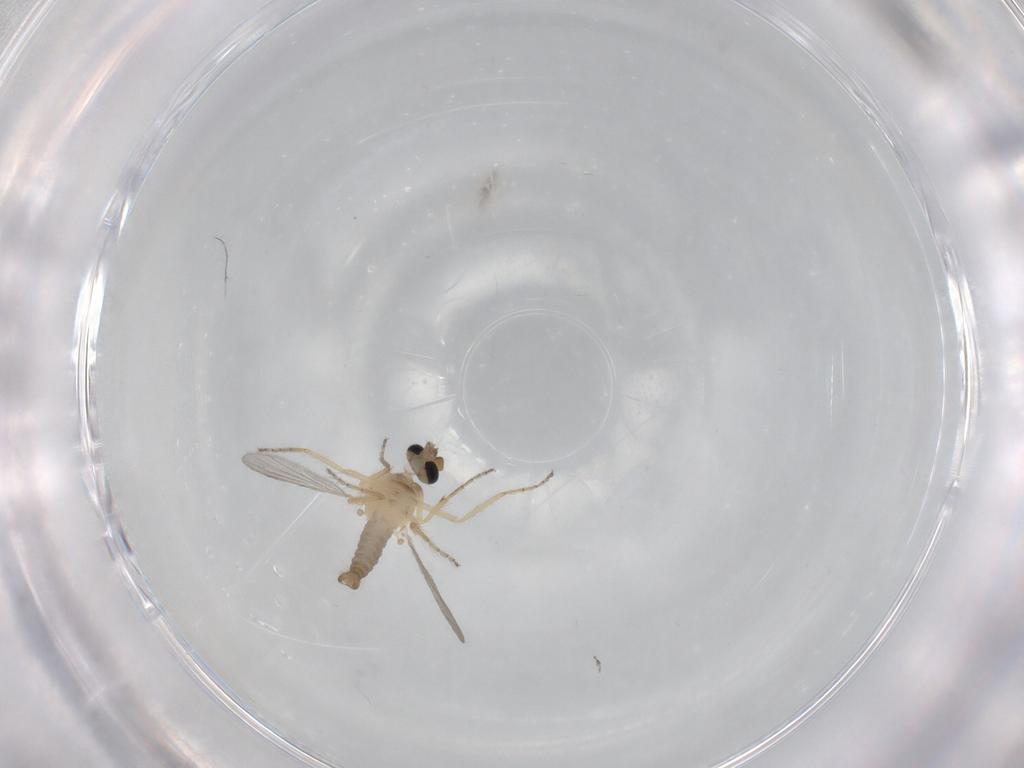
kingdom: Animalia
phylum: Arthropoda
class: Insecta
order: Diptera
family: Ceratopogonidae
